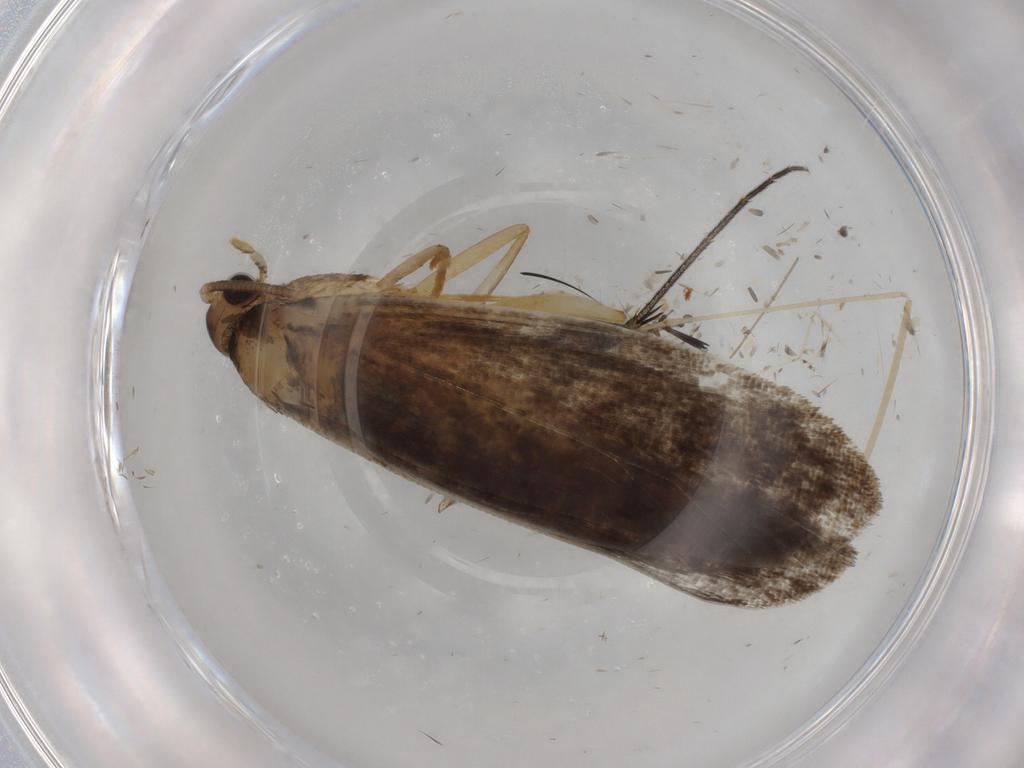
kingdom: Animalia
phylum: Arthropoda
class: Insecta
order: Lepidoptera
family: Tineidae
